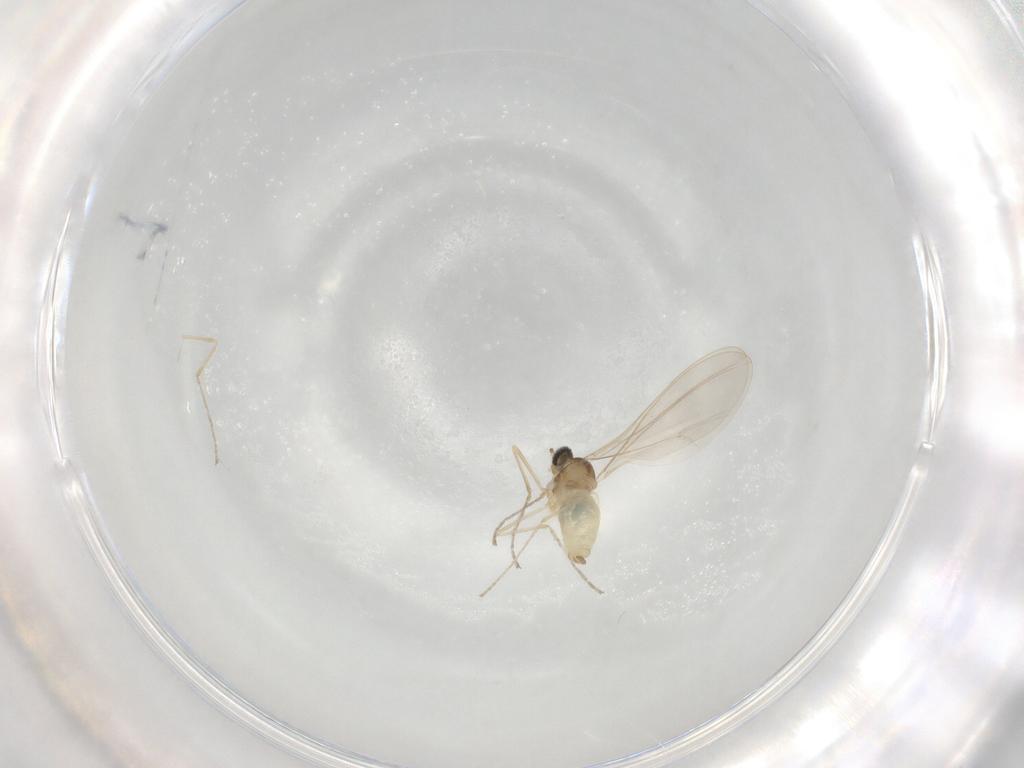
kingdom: Animalia
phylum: Arthropoda
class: Insecta
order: Diptera
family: Cecidomyiidae
